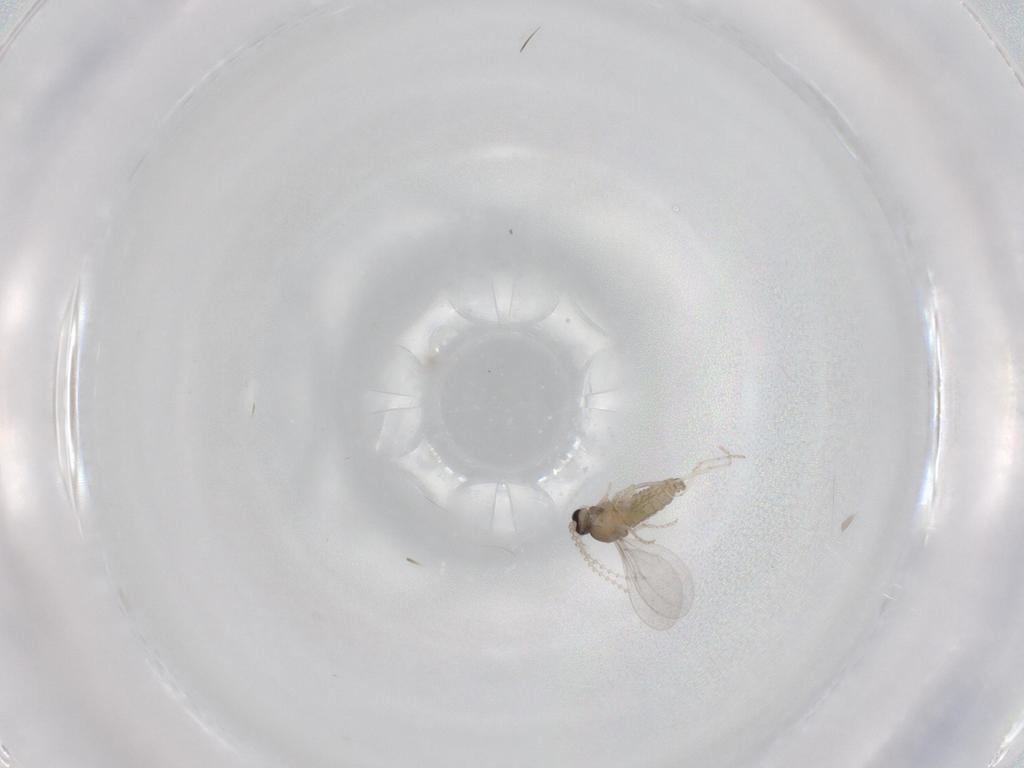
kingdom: Animalia
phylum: Arthropoda
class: Insecta
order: Diptera
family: Cecidomyiidae
